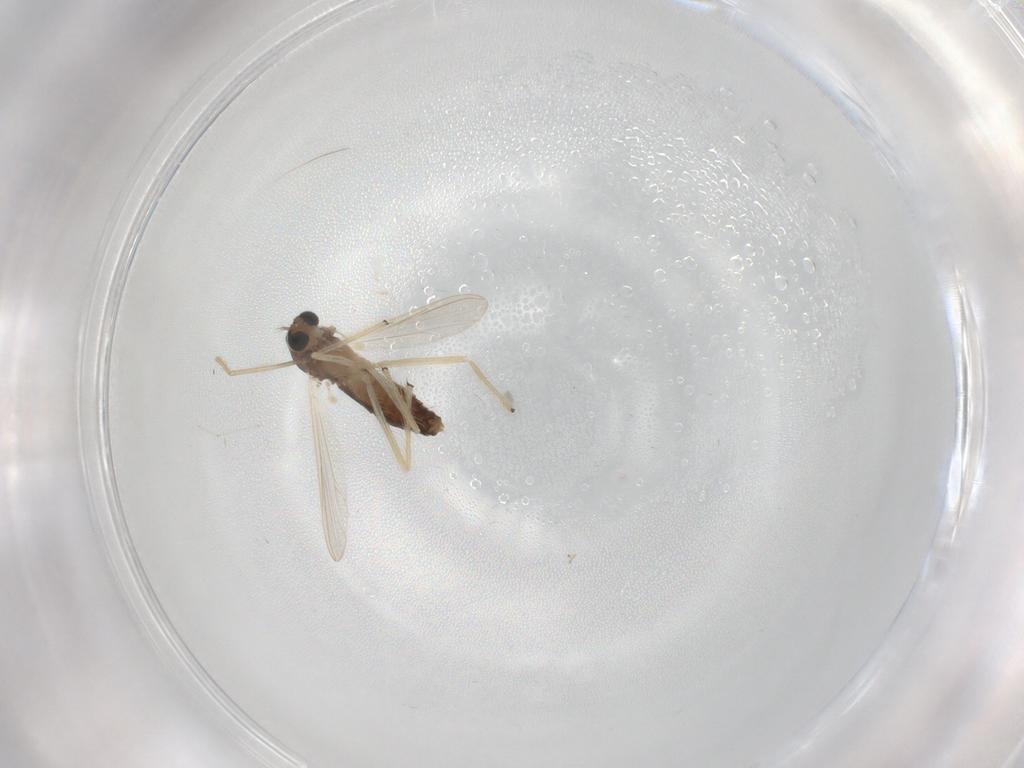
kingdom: Animalia
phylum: Arthropoda
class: Insecta
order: Diptera
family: Chironomidae
